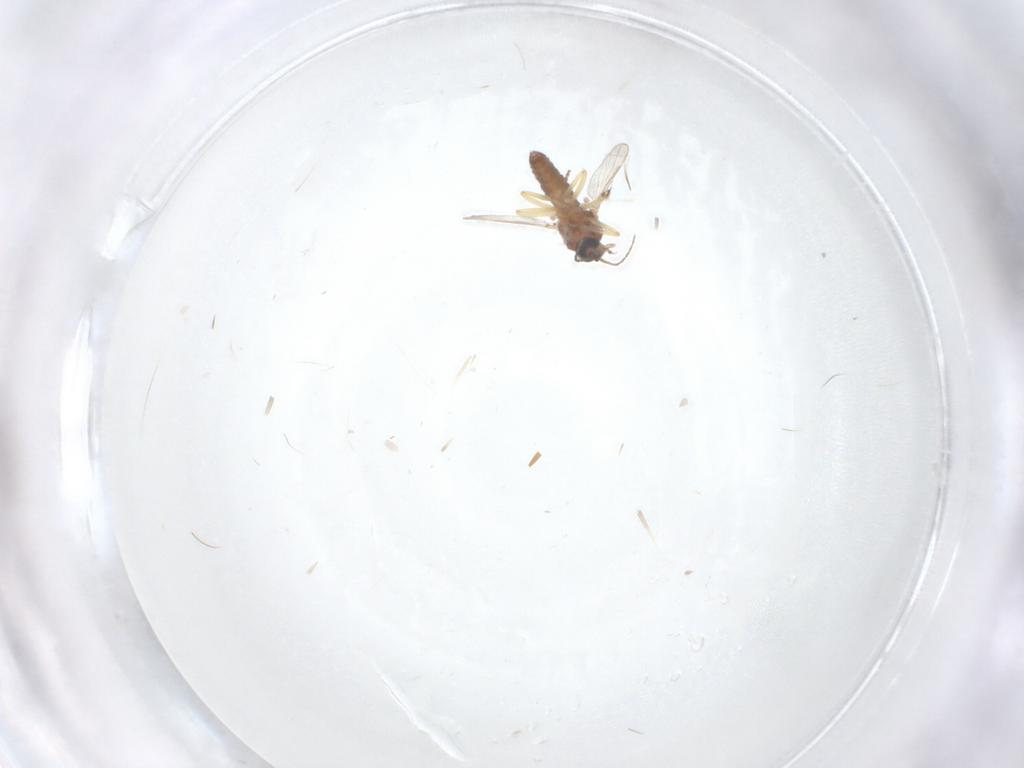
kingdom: Animalia
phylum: Arthropoda
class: Insecta
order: Diptera
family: Ceratopogonidae
